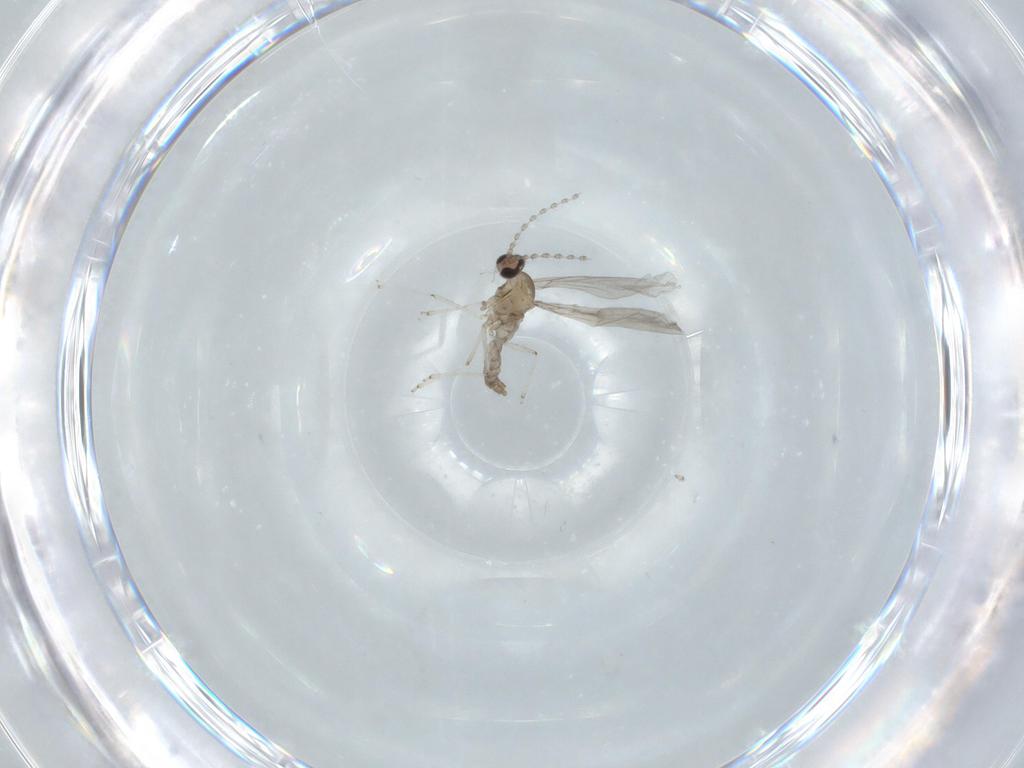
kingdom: Animalia
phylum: Arthropoda
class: Insecta
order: Diptera
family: Cecidomyiidae
